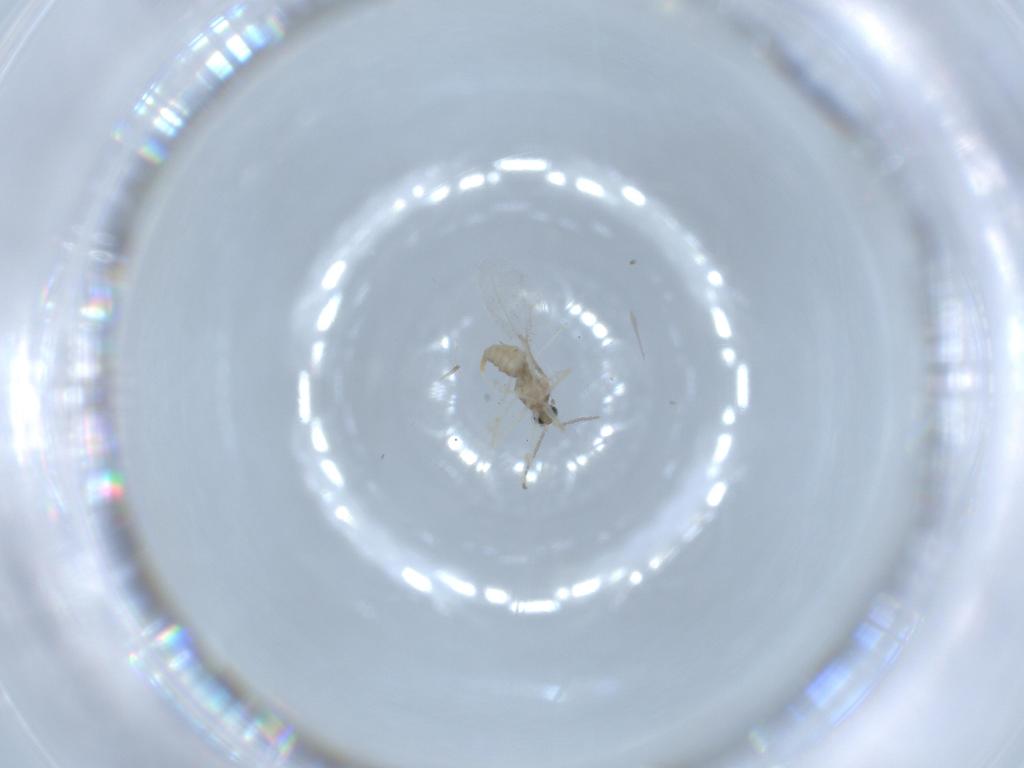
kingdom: Animalia
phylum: Arthropoda
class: Insecta
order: Diptera
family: Cecidomyiidae
